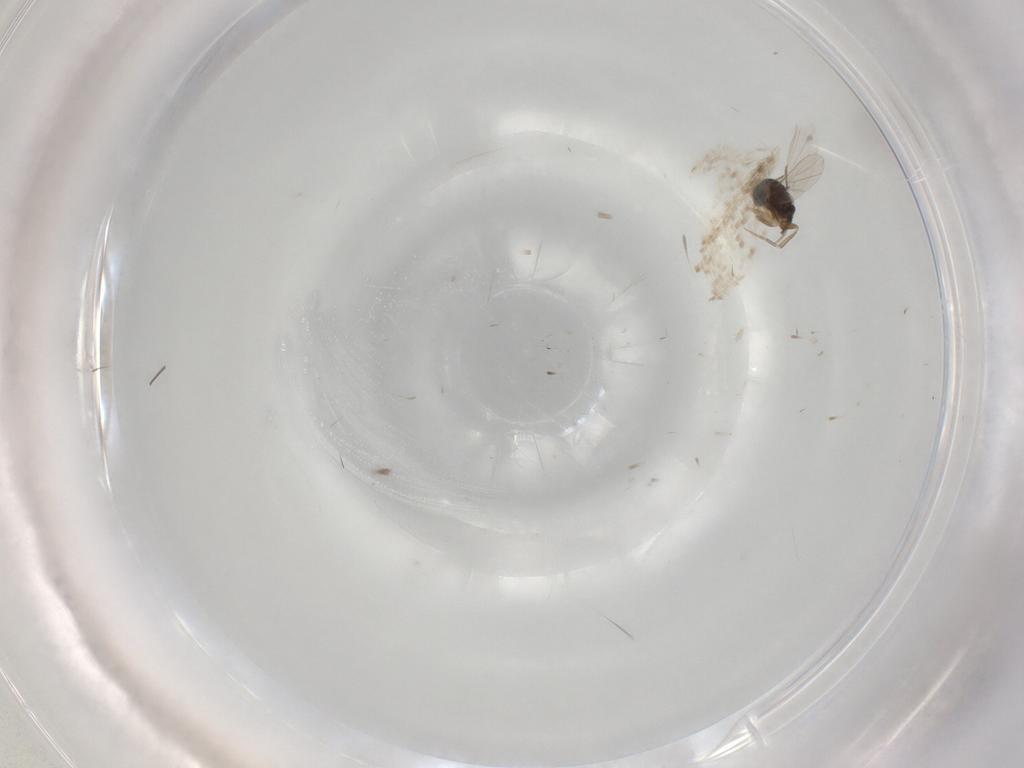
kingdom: Animalia
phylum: Arthropoda
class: Insecta
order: Diptera
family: Phoridae
